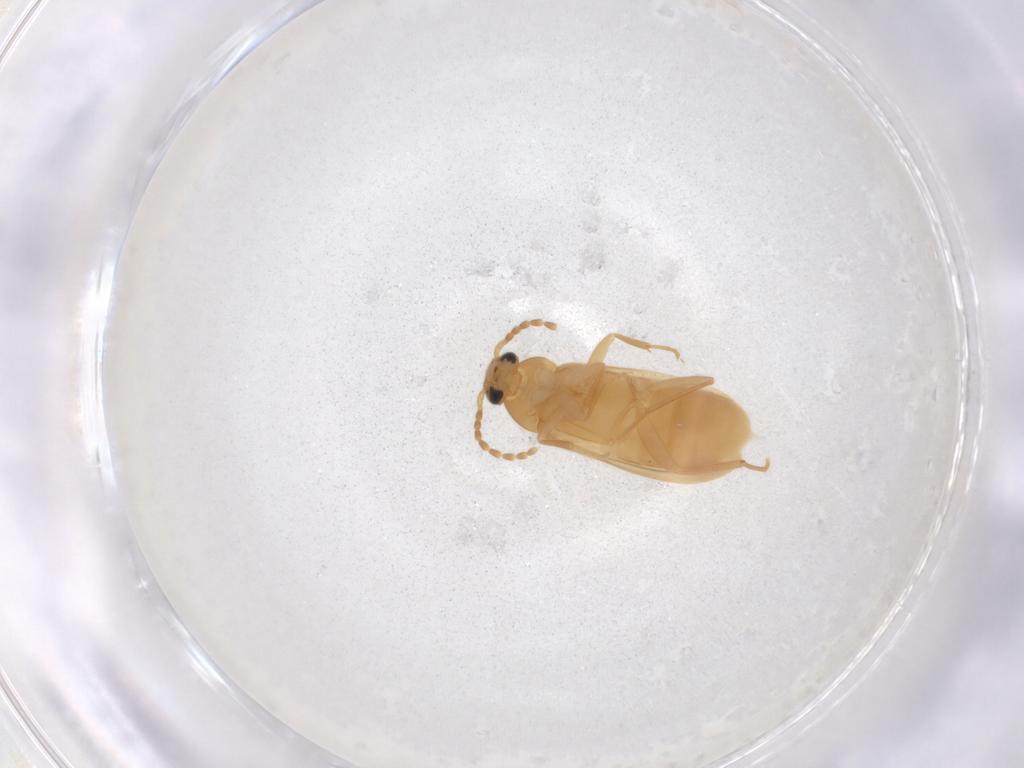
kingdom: Animalia
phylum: Arthropoda
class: Insecta
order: Coleoptera
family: Scraptiidae
